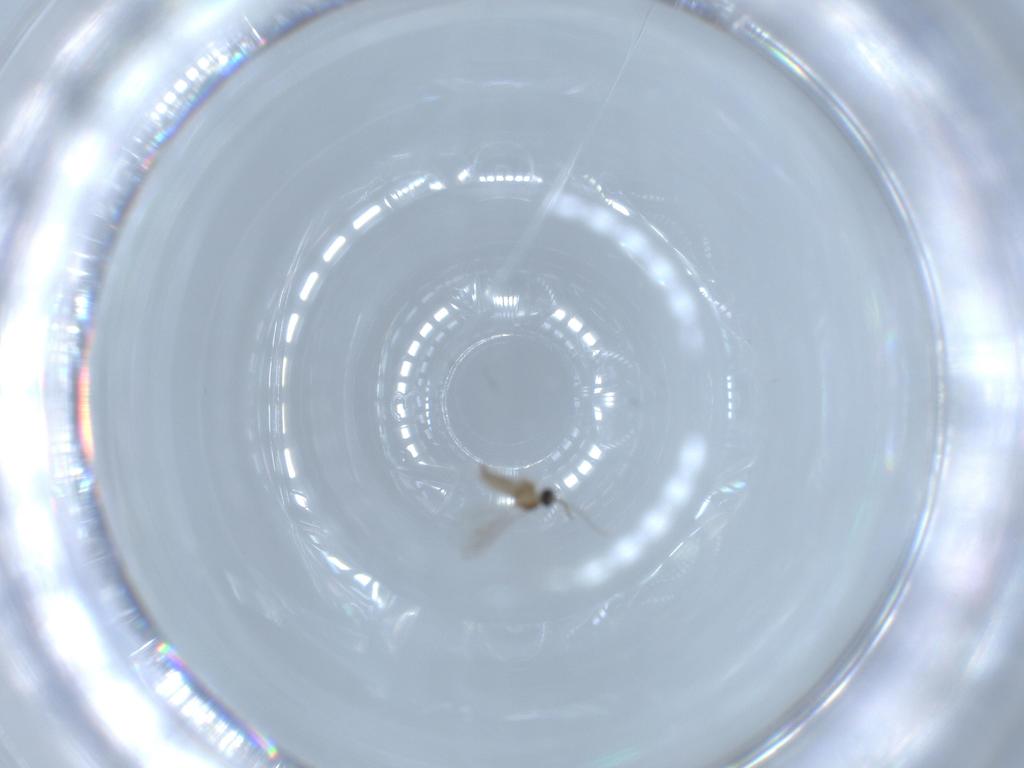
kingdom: Animalia
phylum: Arthropoda
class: Insecta
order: Diptera
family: Cecidomyiidae
